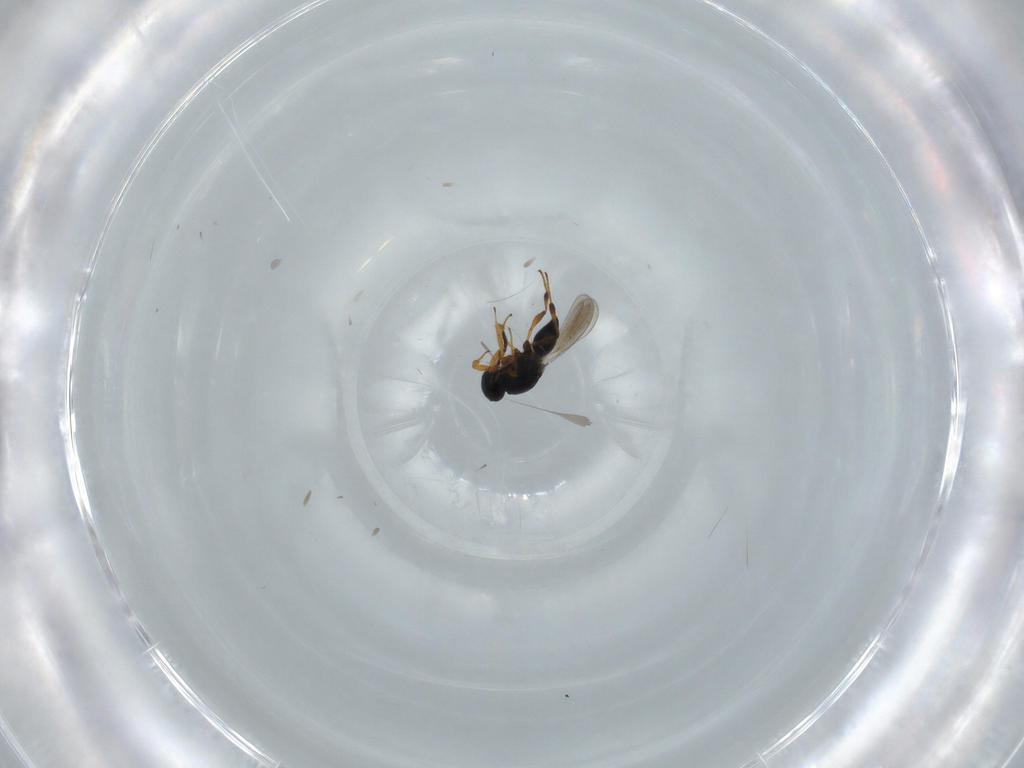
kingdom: Animalia
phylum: Arthropoda
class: Insecta
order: Hymenoptera
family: Platygastridae
